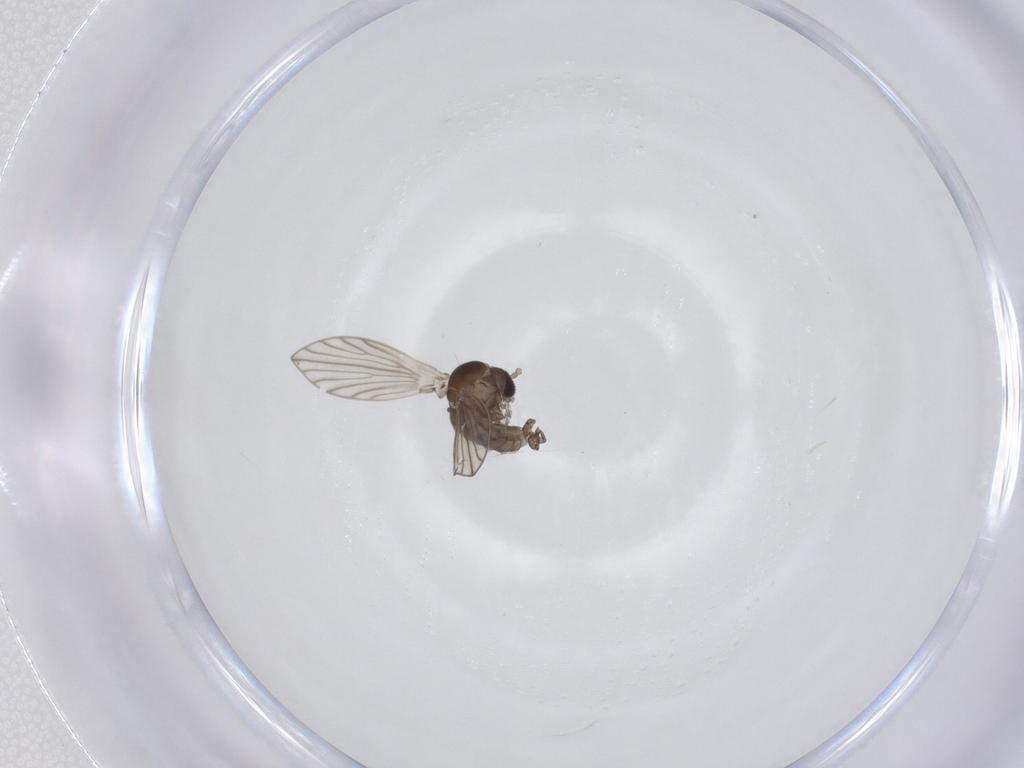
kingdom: Animalia
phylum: Arthropoda
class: Insecta
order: Diptera
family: Psychodidae
